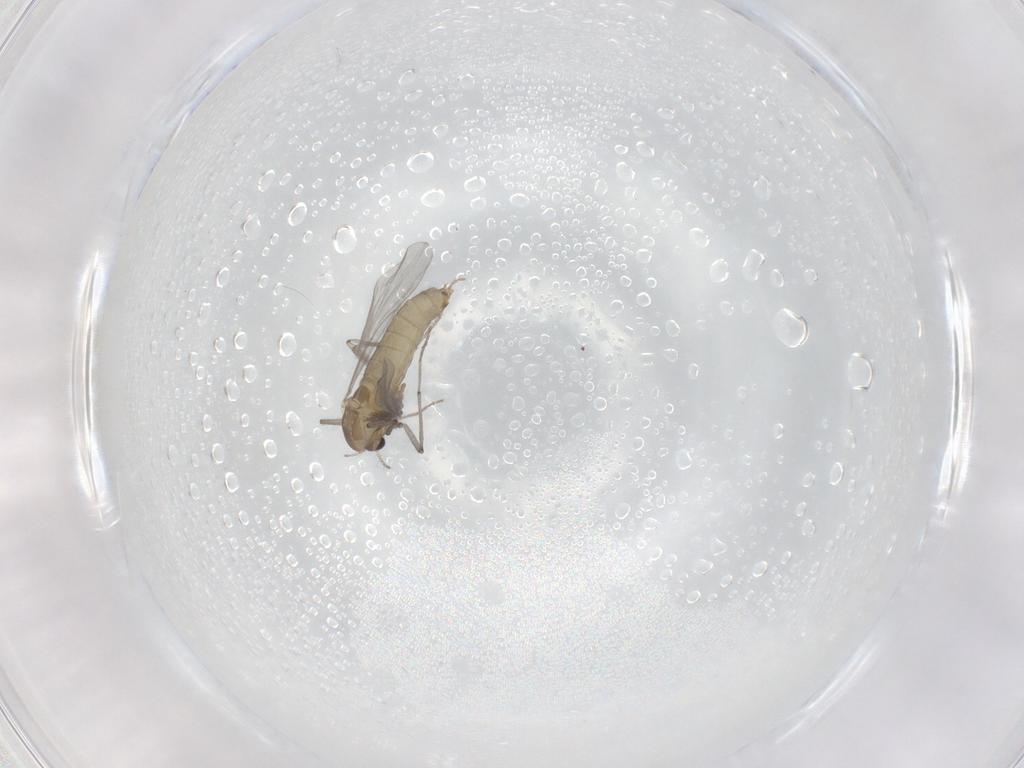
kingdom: Animalia
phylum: Arthropoda
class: Insecta
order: Diptera
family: Chironomidae
